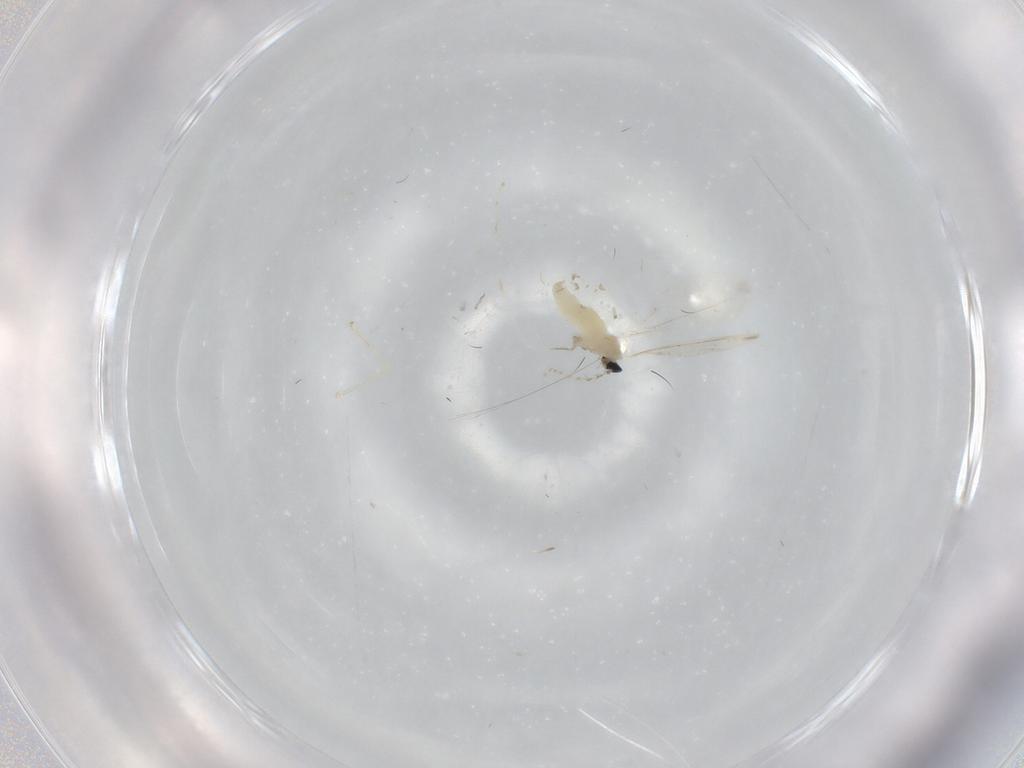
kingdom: Animalia
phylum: Arthropoda
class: Insecta
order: Diptera
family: Cecidomyiidae
